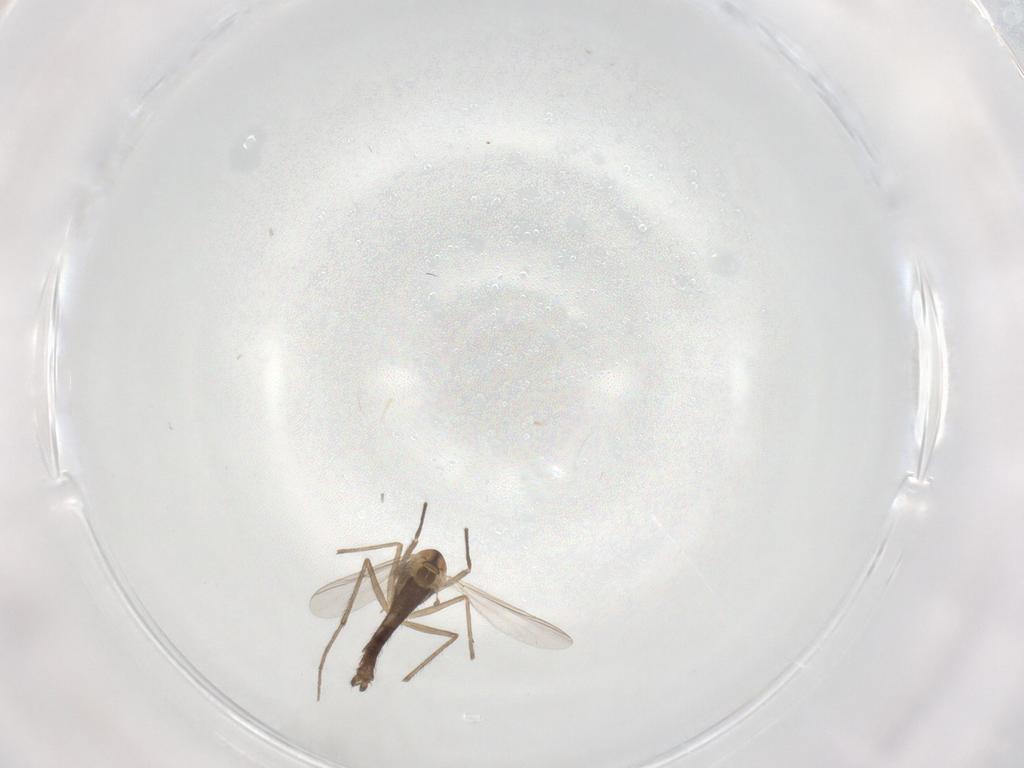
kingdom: Animalia
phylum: Arthropoda
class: Insecta
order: Diptera
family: Chironomidae
